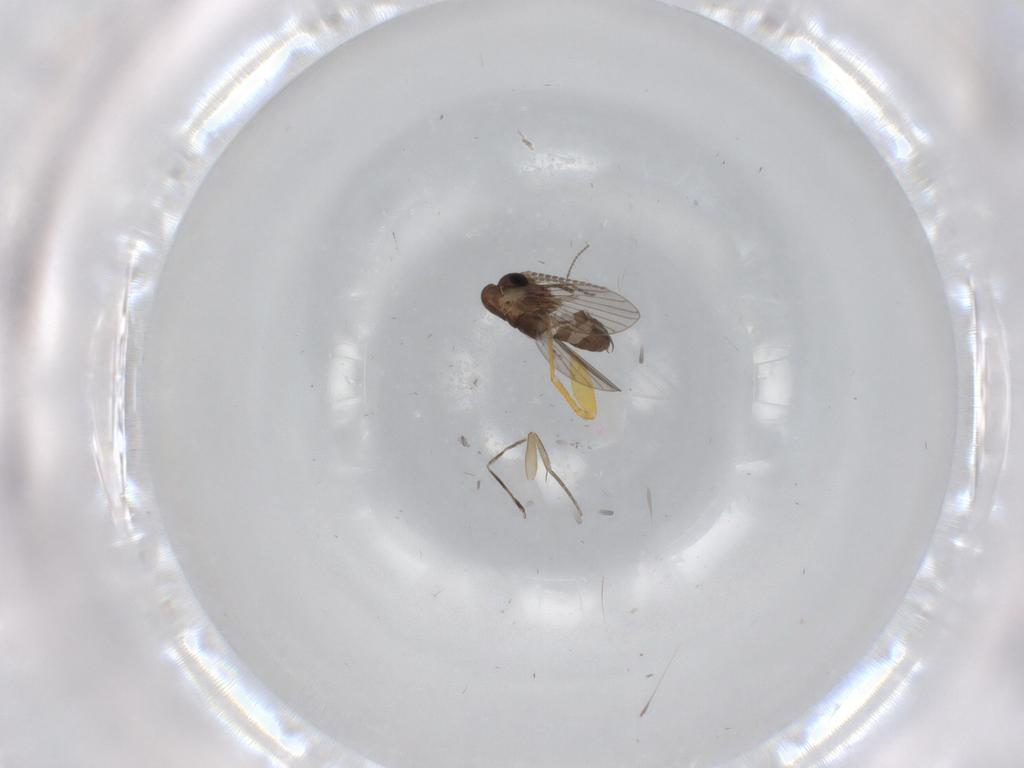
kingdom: Animalia
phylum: Arthropoda
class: Insecta
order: Diptera
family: Phoridae
